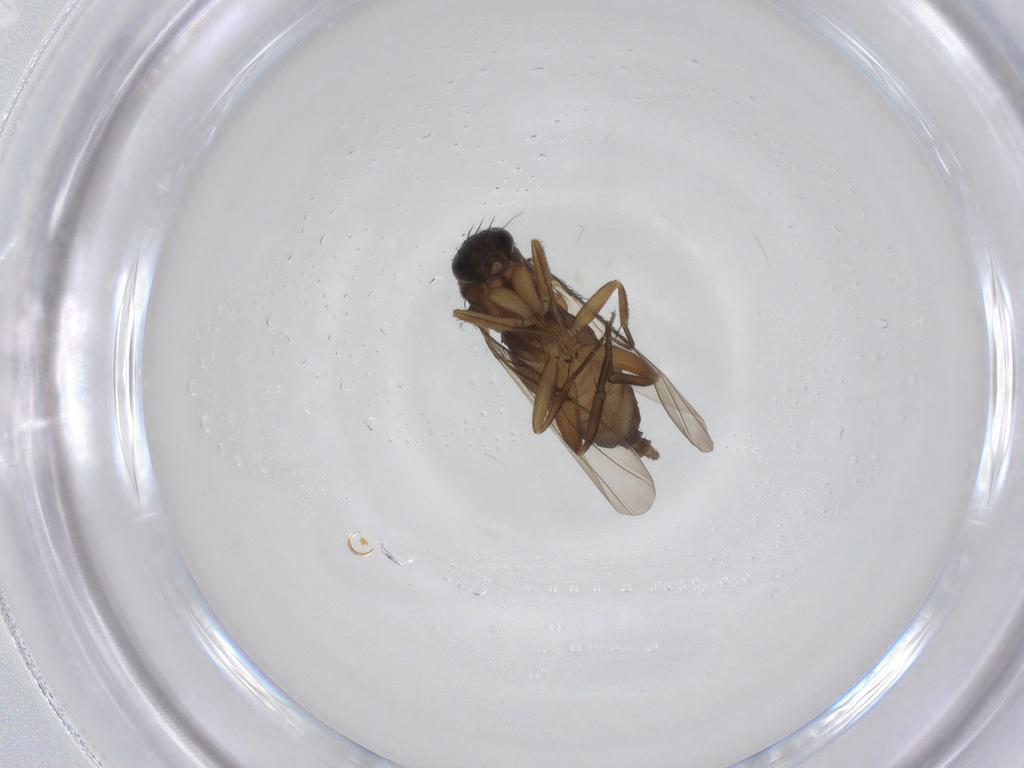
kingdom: Animalia
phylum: Arthropoda
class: Insecta
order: Diptera
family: Phoridae
